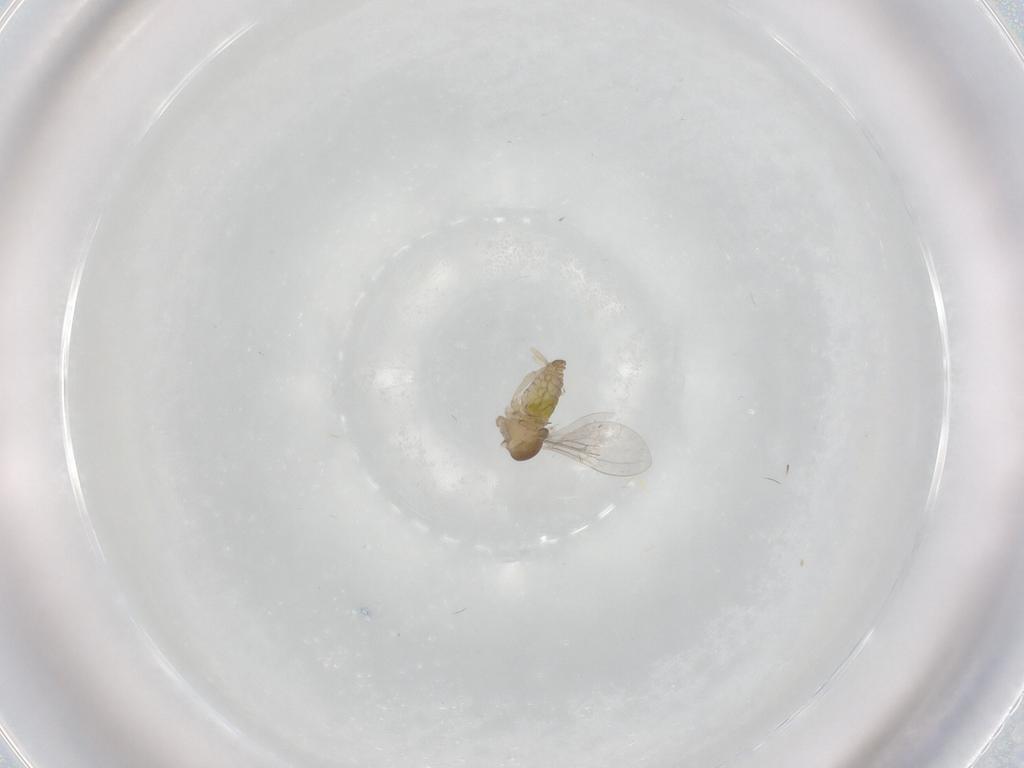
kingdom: Animalia
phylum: Arthropoda
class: Insecta
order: Diptera
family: Cecidomyiidae
